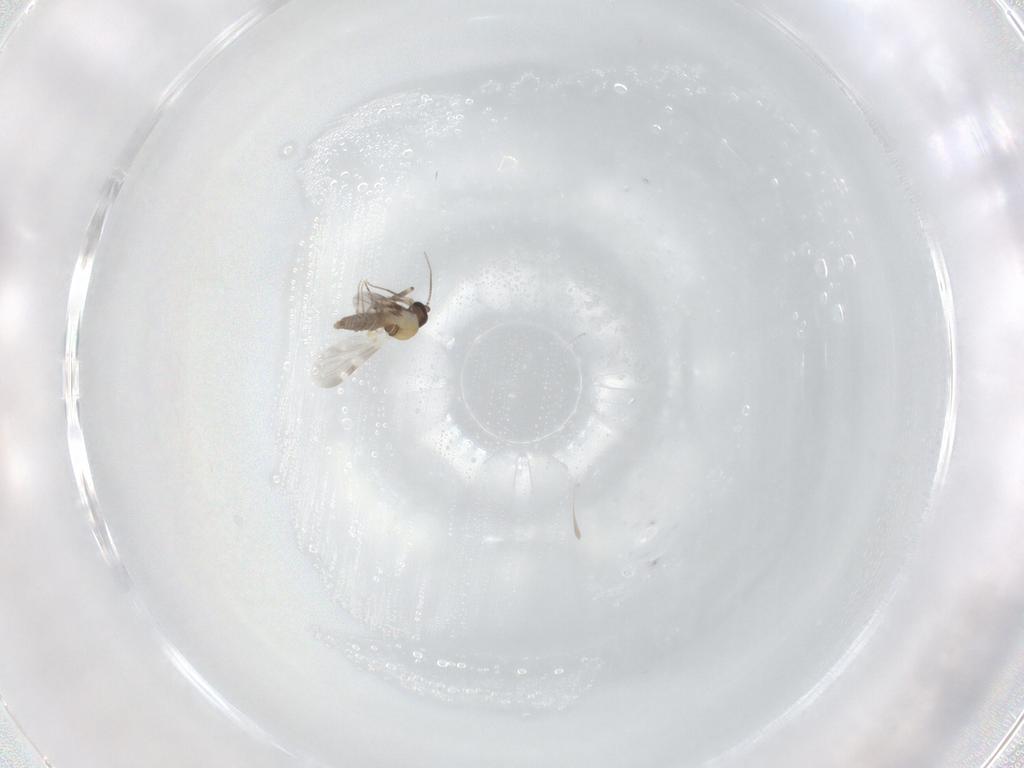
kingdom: Animalia
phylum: Arthropoda
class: Insecta
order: Diptera
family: Ceratopogonidae
